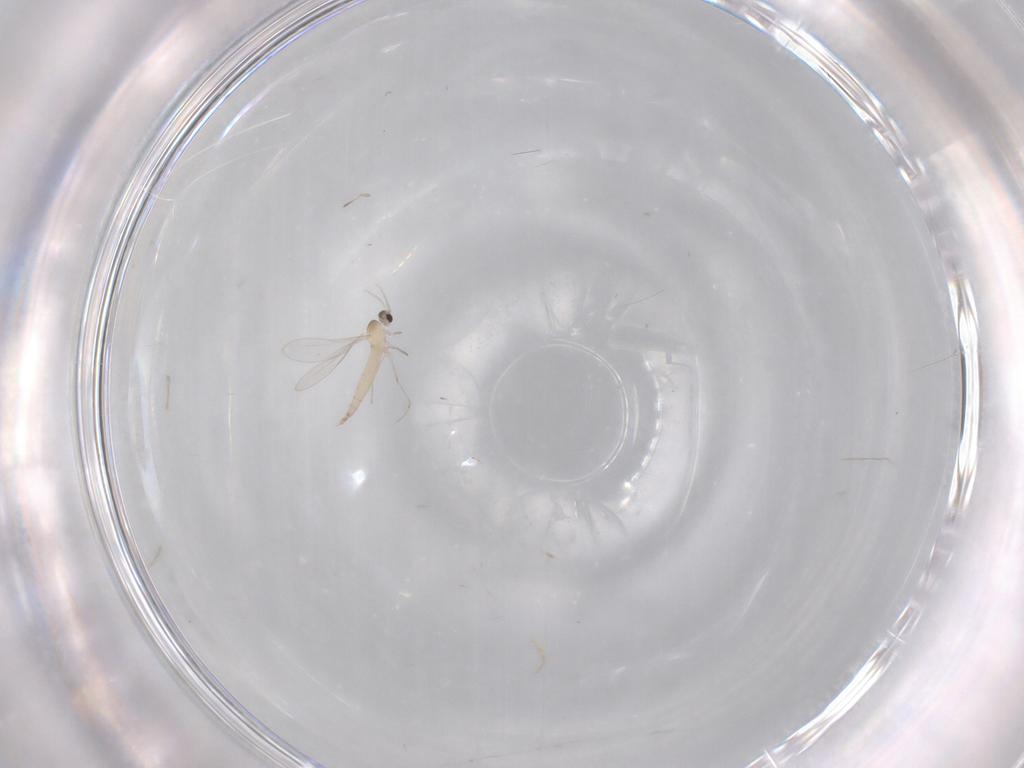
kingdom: Animalia
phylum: Arthropoda
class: Insecta
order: Diptera
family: Cecidomyiidae
